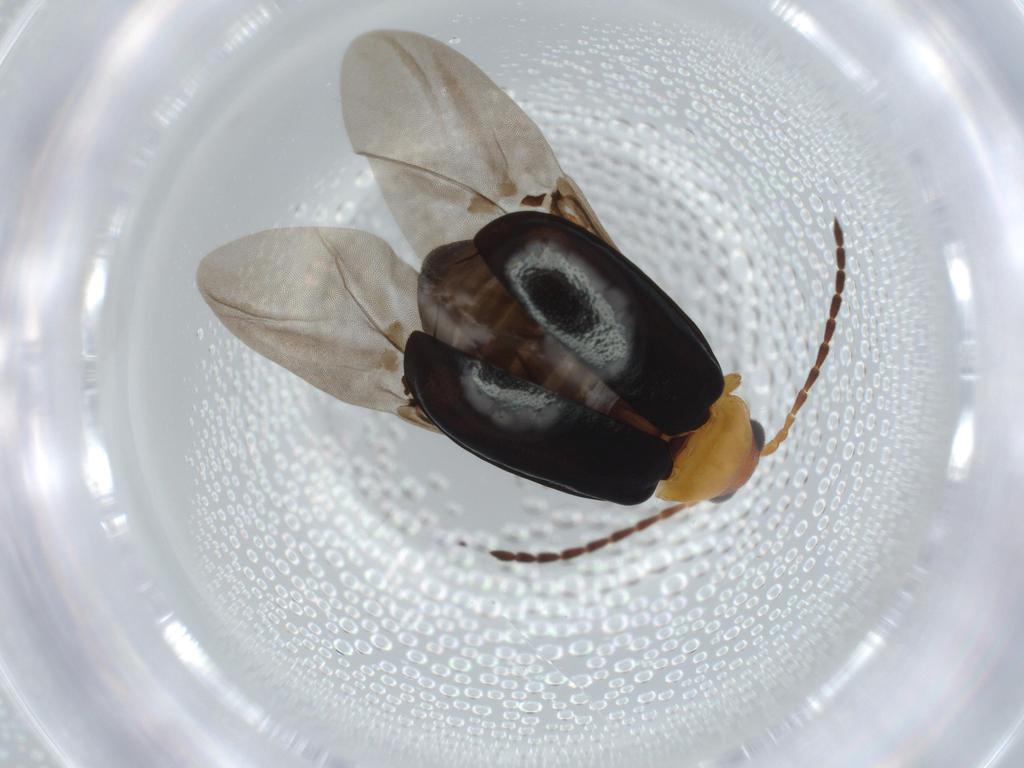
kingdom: Animalia
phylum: Arthropoda
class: Insecta
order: Coleoptera
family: Chrysomelidae
